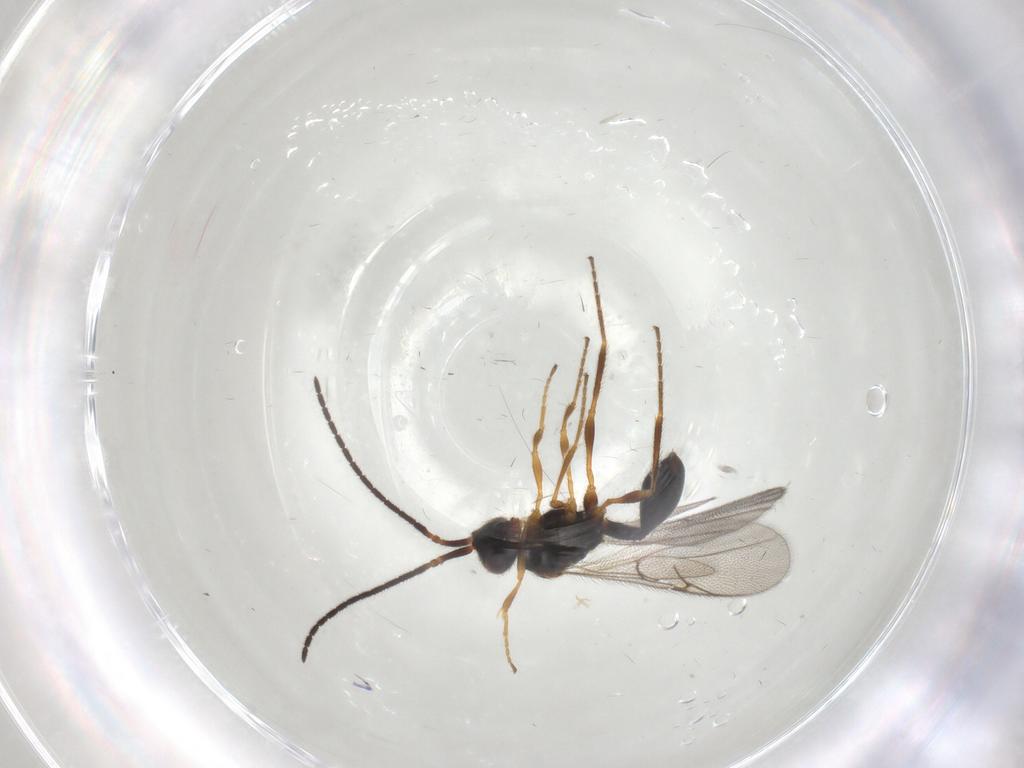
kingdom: Animalia
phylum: Arthropoda
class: Insecta
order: Hymenoptera
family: Diapriidae
